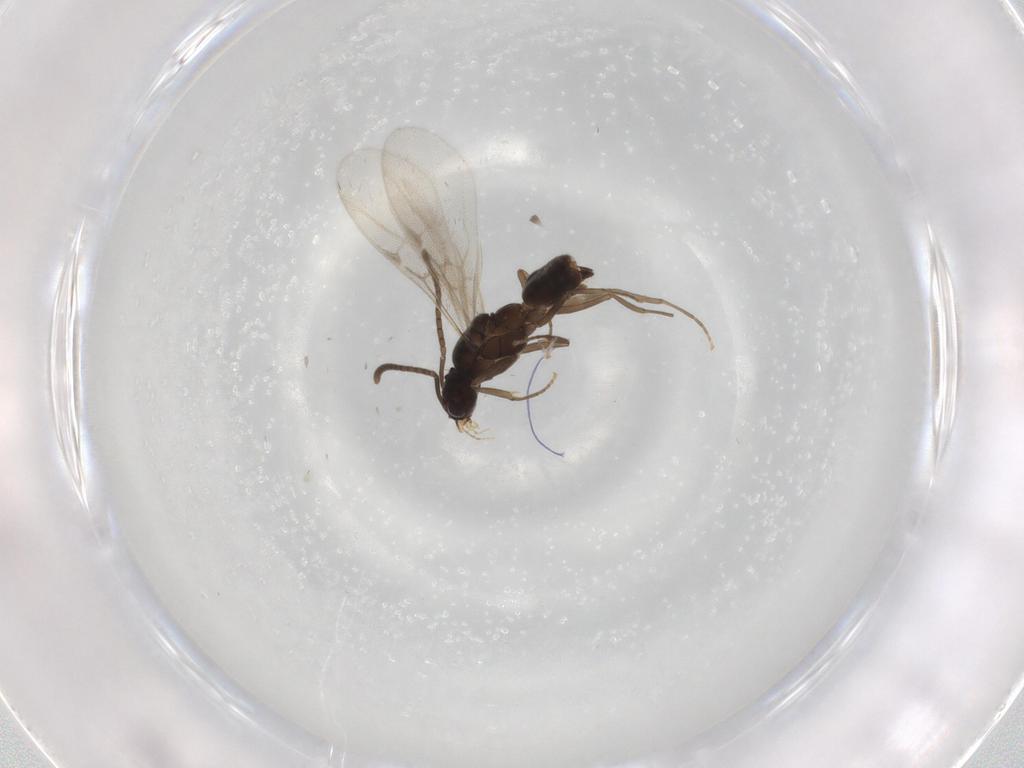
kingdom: Animalia
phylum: Arthropoda
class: Insecta
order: Hymenoptera
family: Formicidae
